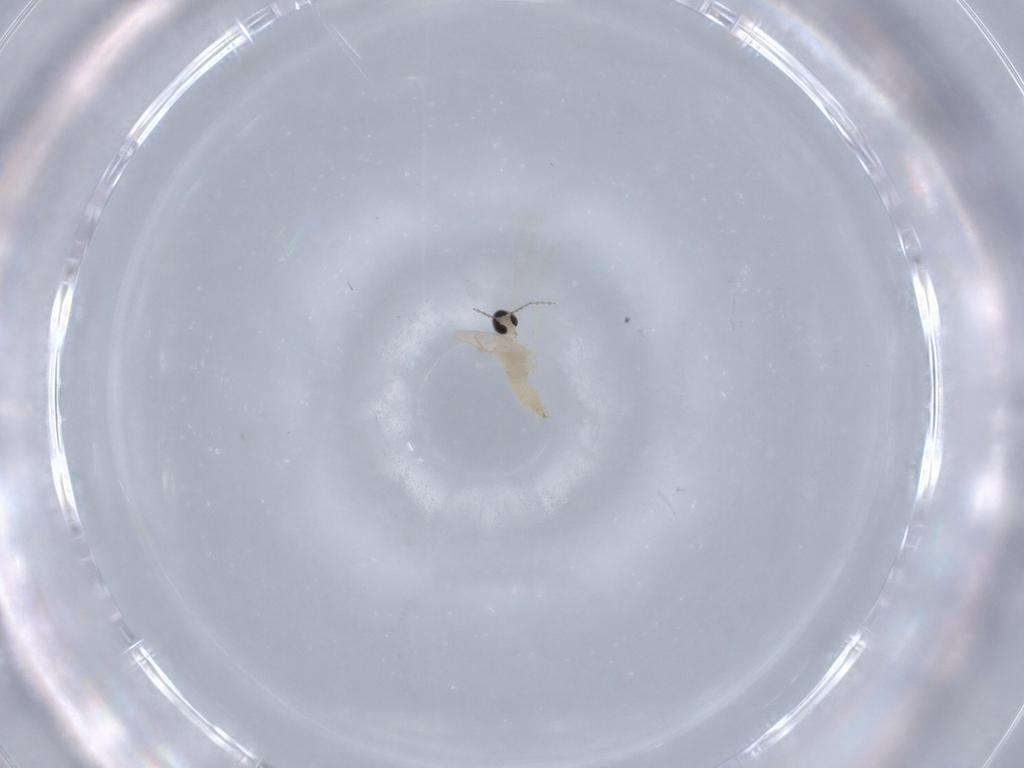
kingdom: Animalia
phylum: Arthropoda
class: Insecta
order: Diptera
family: Cecidomyiidae
